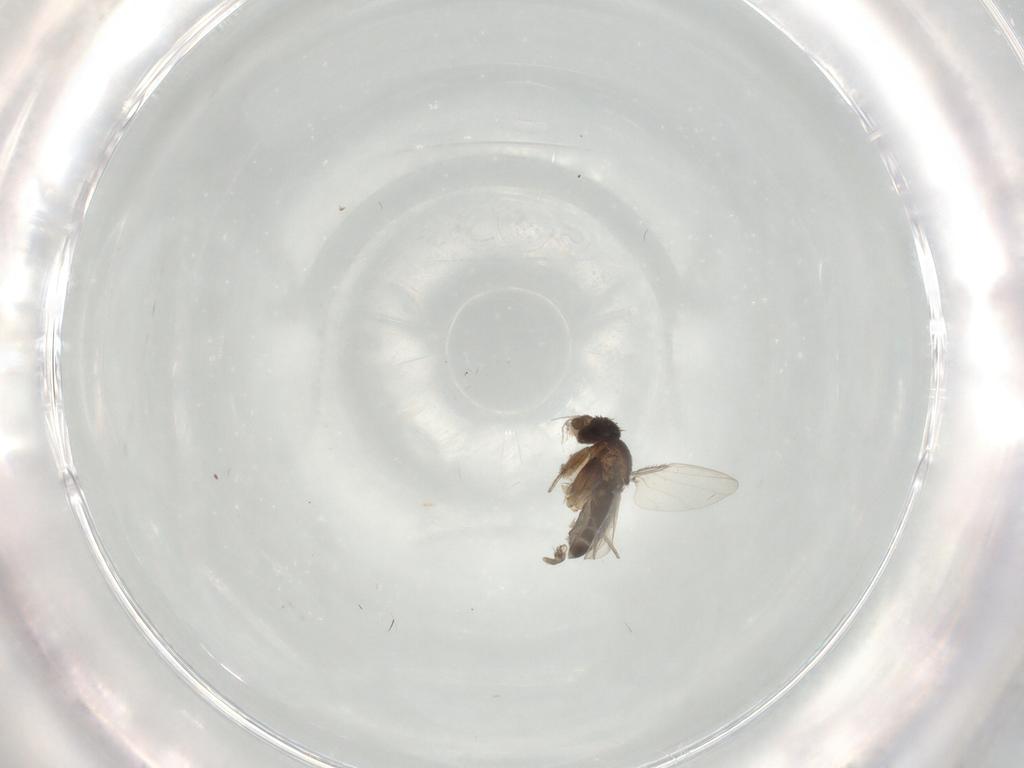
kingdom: Animalia
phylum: Arthropoda
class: Insecta
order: Diptera
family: Phoridae
